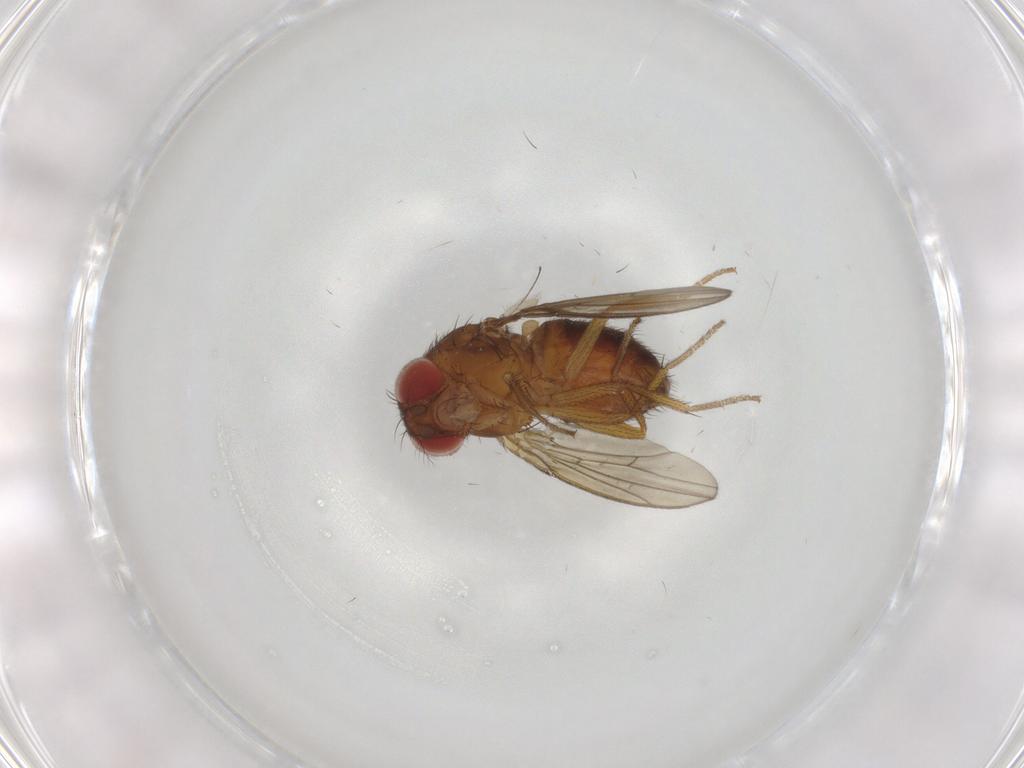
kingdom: Animalia
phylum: Arthropoda
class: Insecta
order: Diptera
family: Drosophilidae
